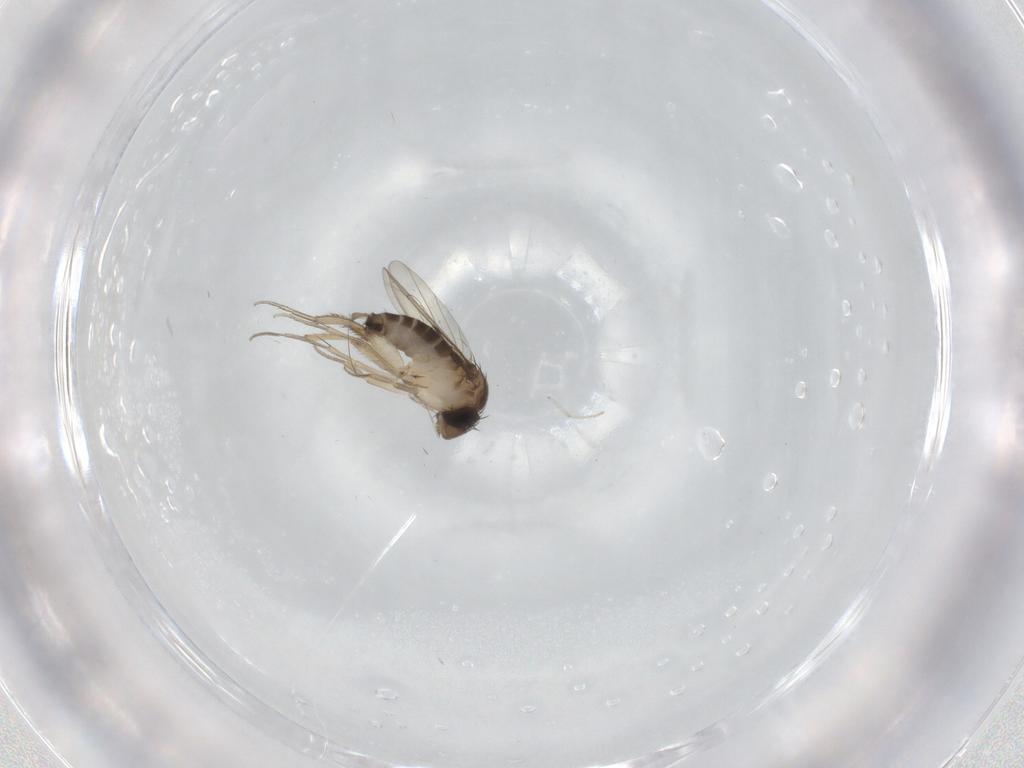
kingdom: Animalia
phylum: Arthropoda
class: Insecta
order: Diptera
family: Milichiidae
